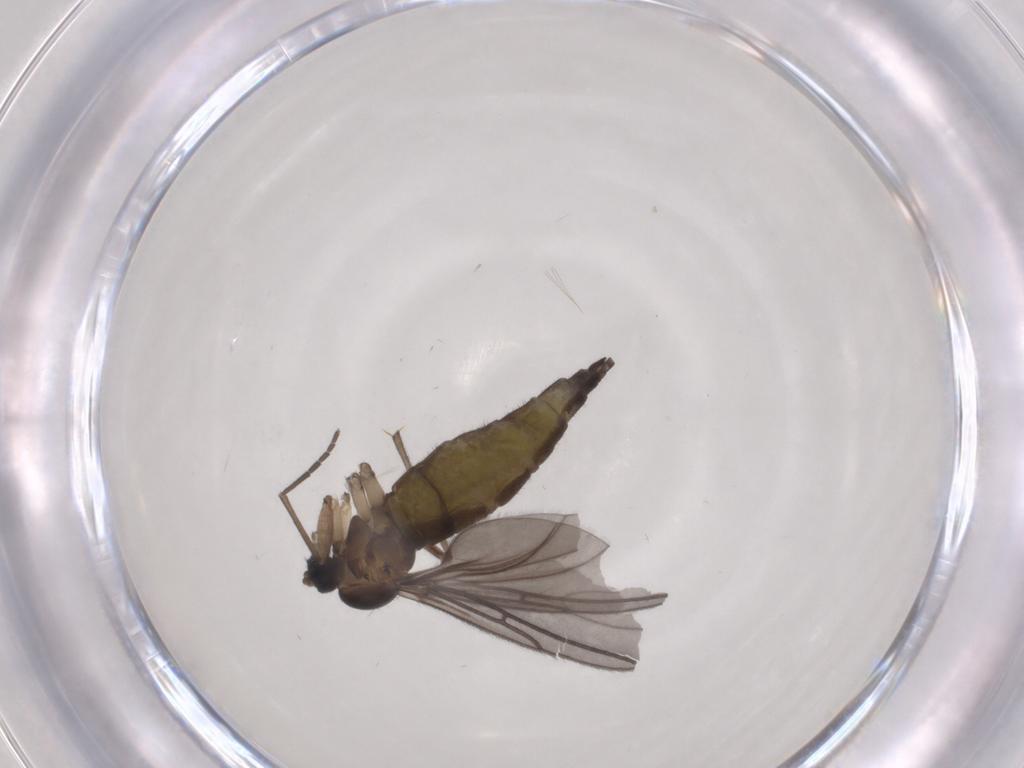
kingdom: Animalia
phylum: Arthropoda
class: Insecta
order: Diptera
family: Sciaridae
